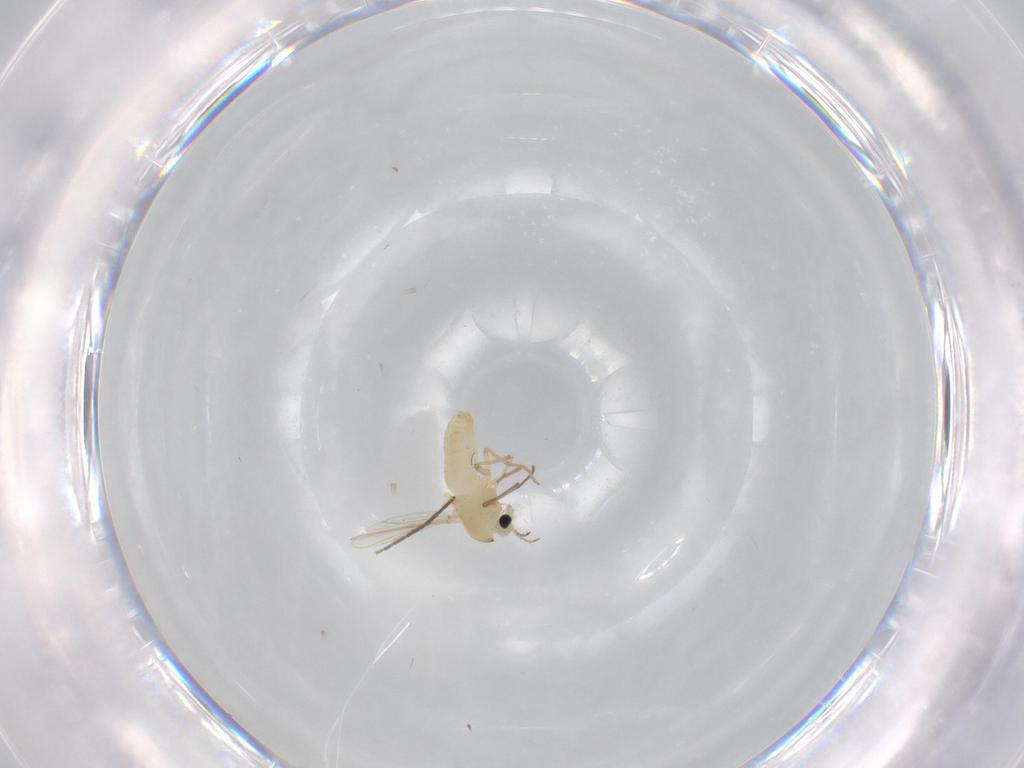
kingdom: Animalia
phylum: Arthropoda
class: Insecta
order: Diptera
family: Chironomidae
